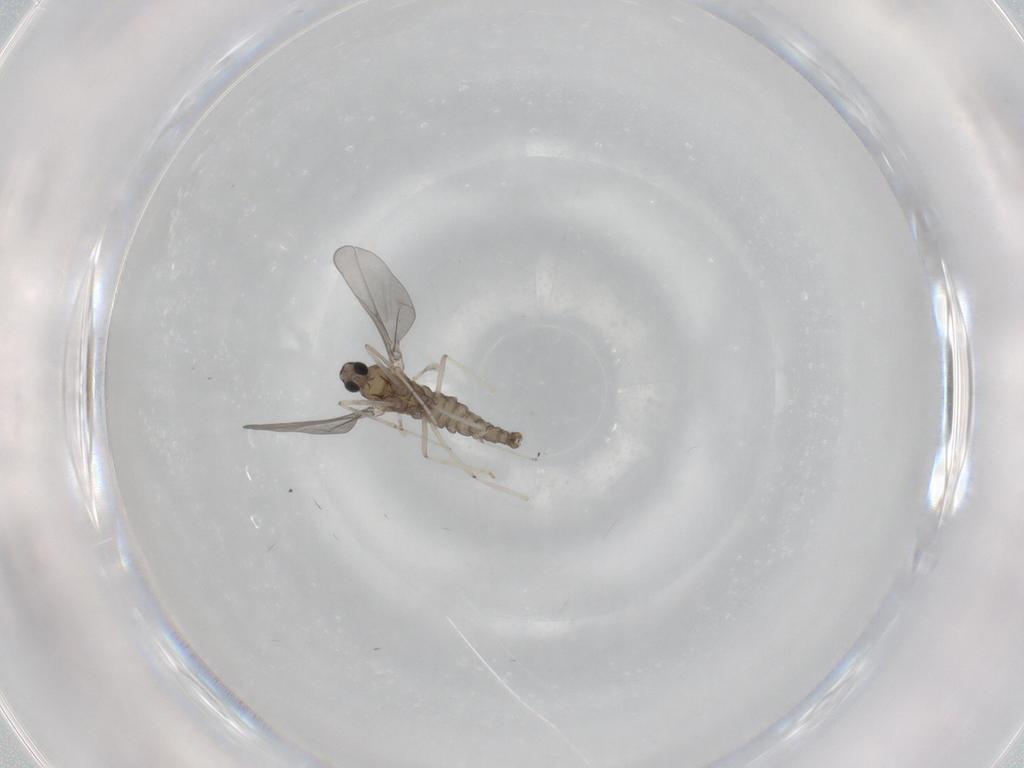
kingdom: Animalia
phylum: Arthropoda
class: Insecta
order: Diptera
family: Cecidomyiidae
